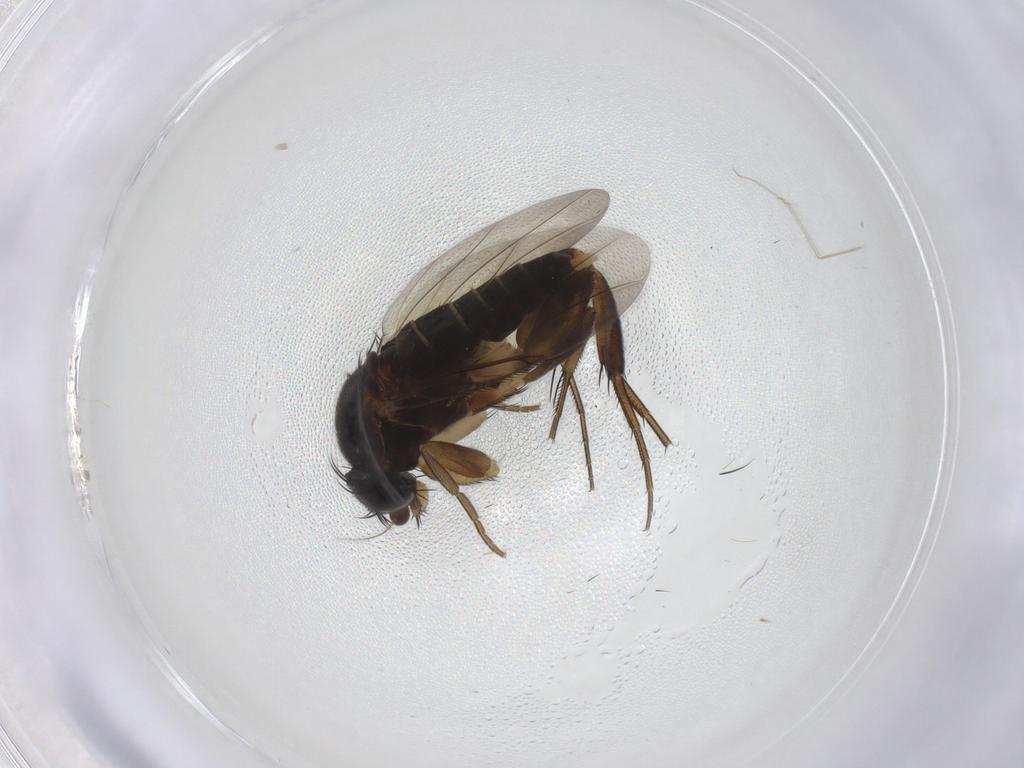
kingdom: Animalia
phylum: Arthropoda
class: Insecta
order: Diptera
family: Phoridae
